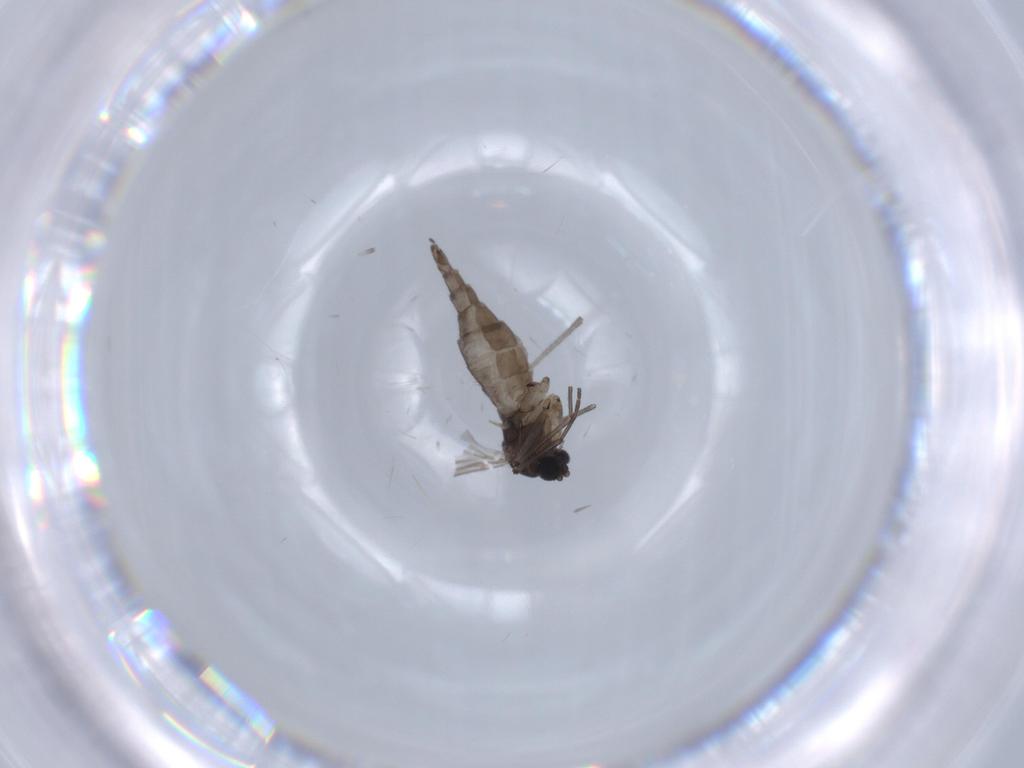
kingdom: Animalia
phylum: Arthropoda
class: Insecta
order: Diptera
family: Sciaridae
